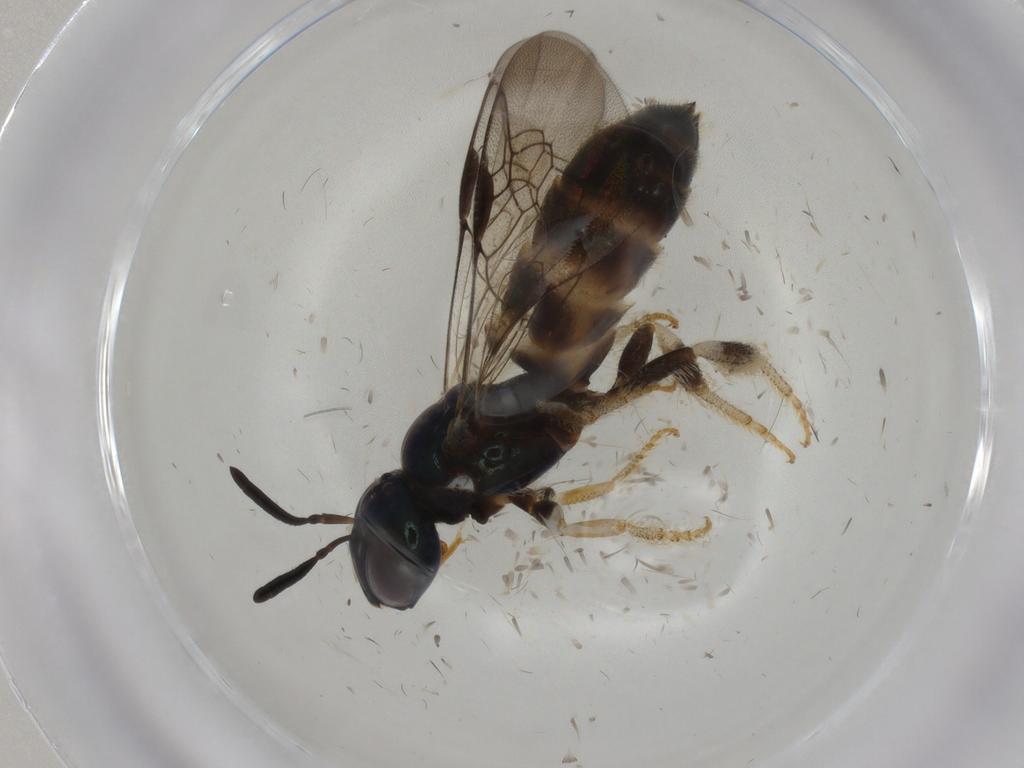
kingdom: Animalia
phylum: Arthropoda
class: Insecta
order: Hymenoptera
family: Apidae
